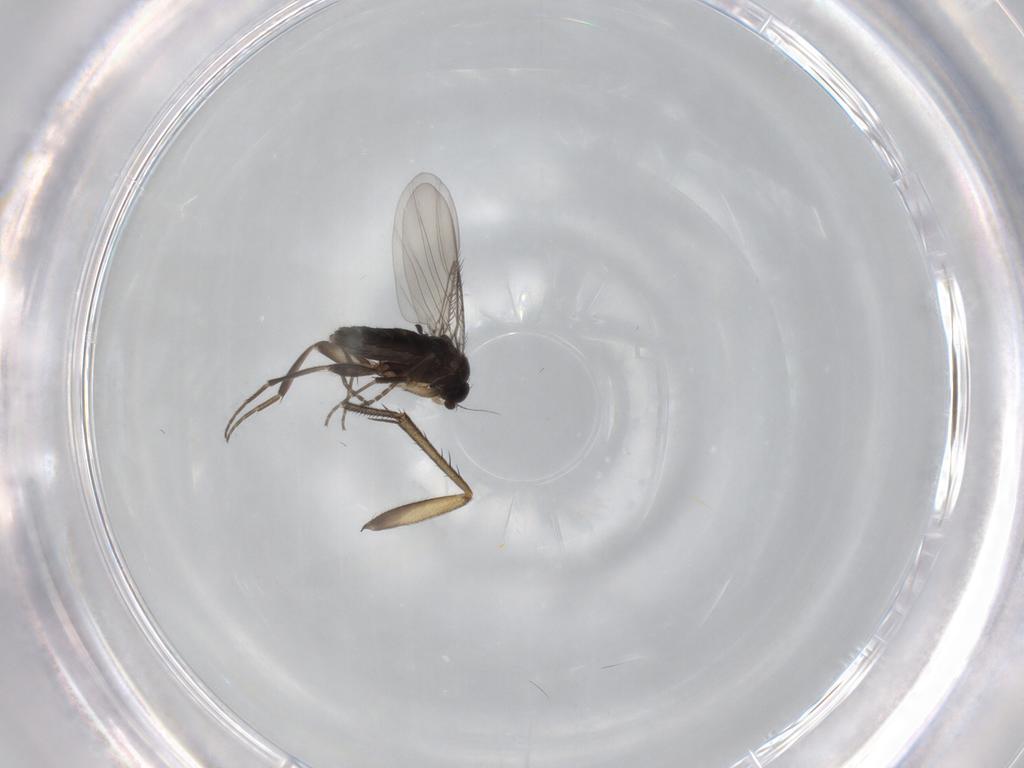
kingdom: Animalia
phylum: Arthropoda
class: Insecta
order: Diptera
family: Phoridae
